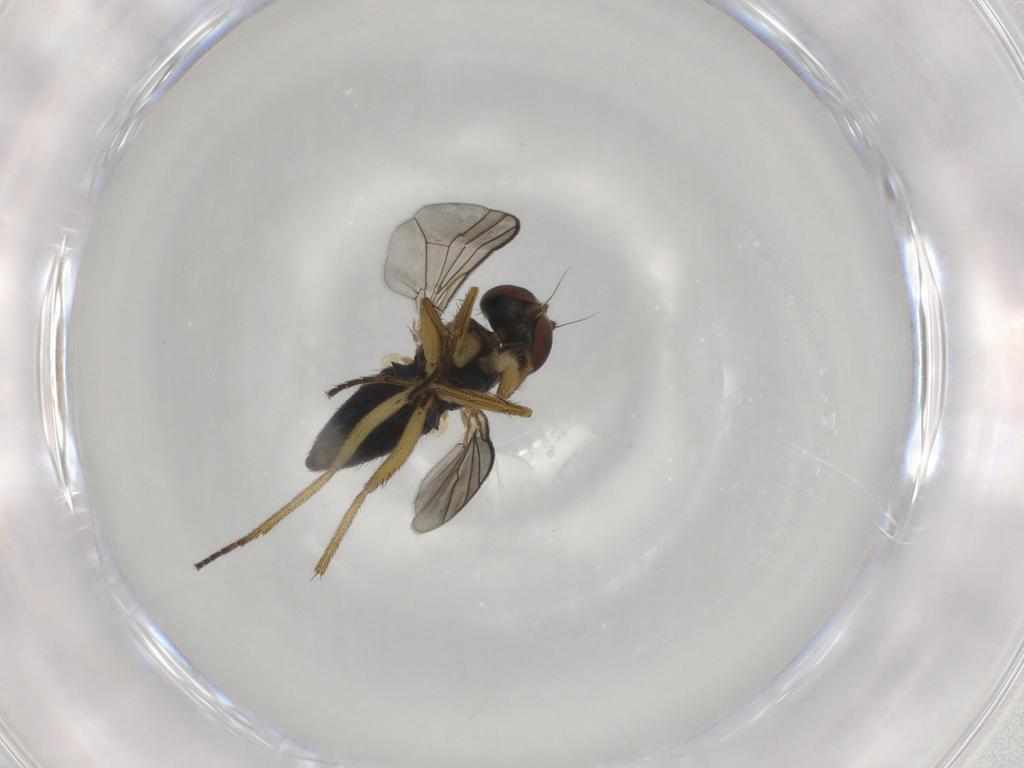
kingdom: Animalia
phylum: Arthropoda
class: Insecta
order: Diptera
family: Dolichopodidae
